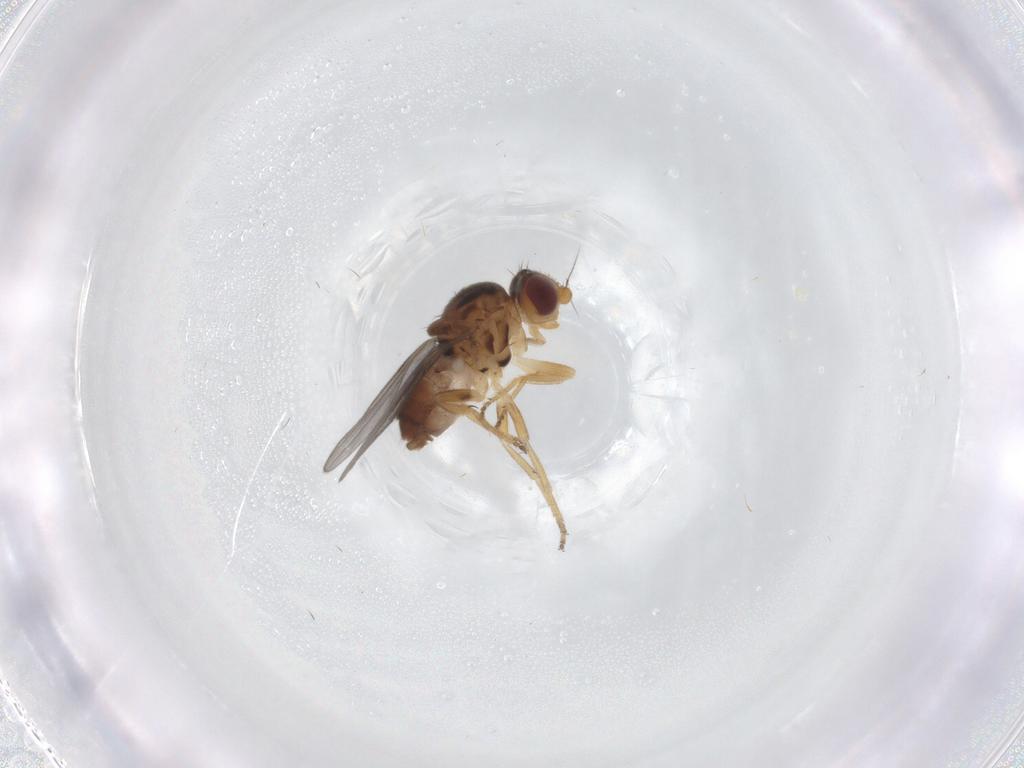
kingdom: Animalia
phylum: Arthropoda
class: Insecta
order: Diptera
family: Chloropidae
